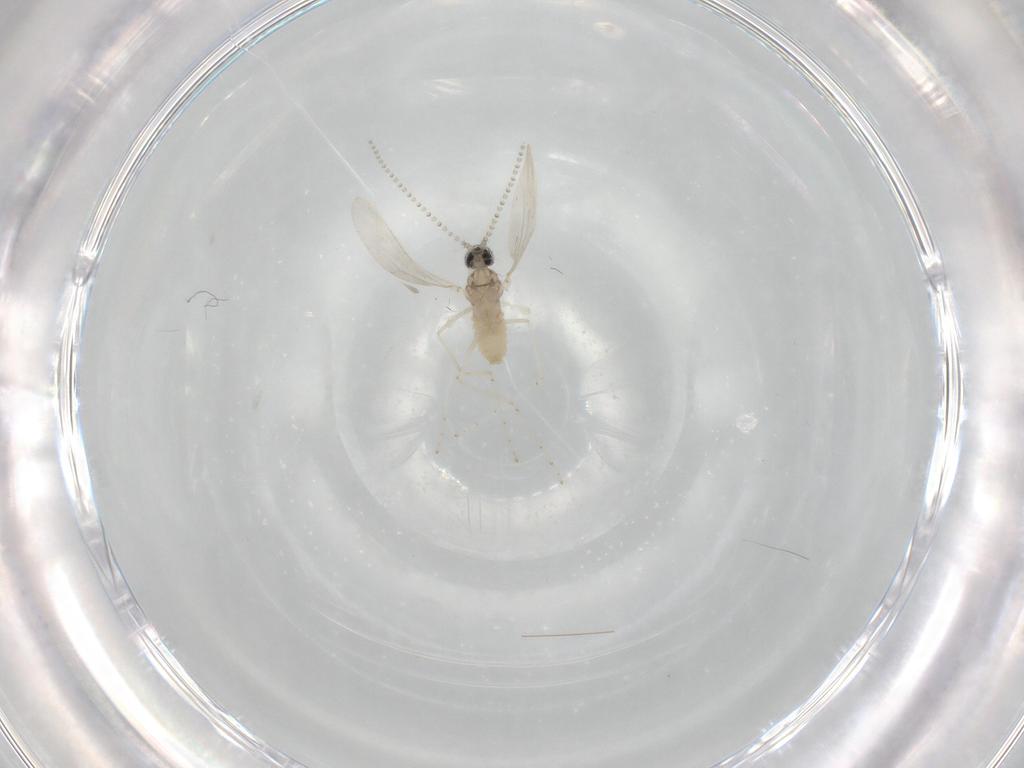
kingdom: Animalia
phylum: Arthropoda
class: Insecta
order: Diptera
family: Cecidomyiidae
